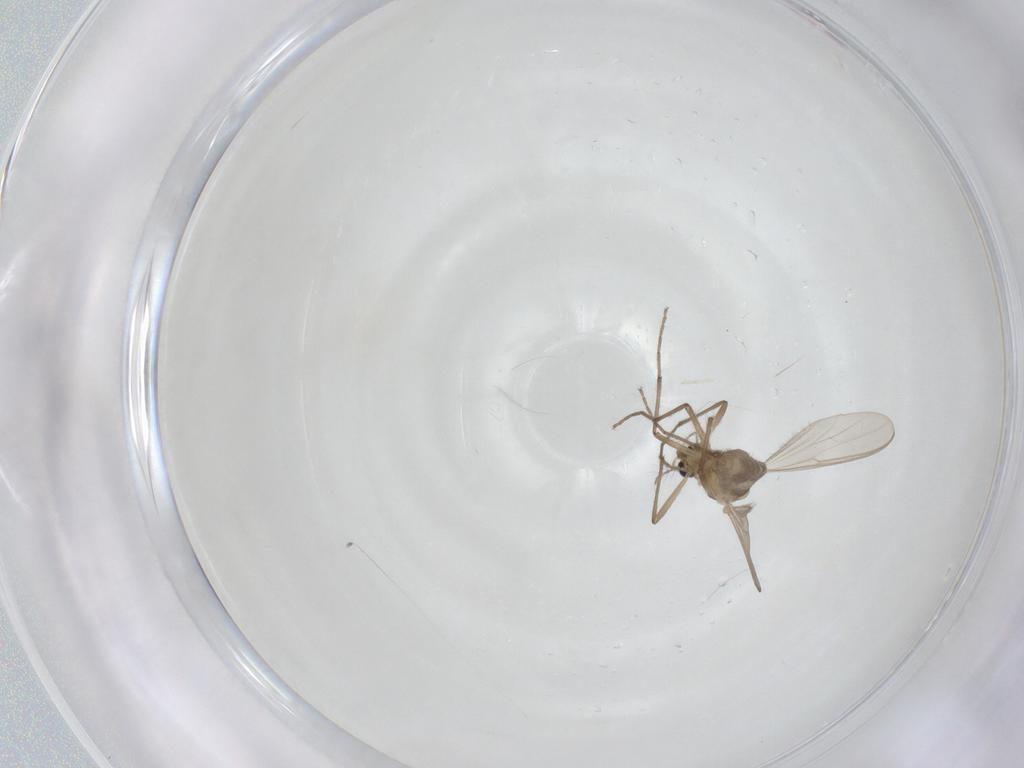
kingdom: Animalia
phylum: Arthropoda
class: Insecta
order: Diptera
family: Chironomidae
